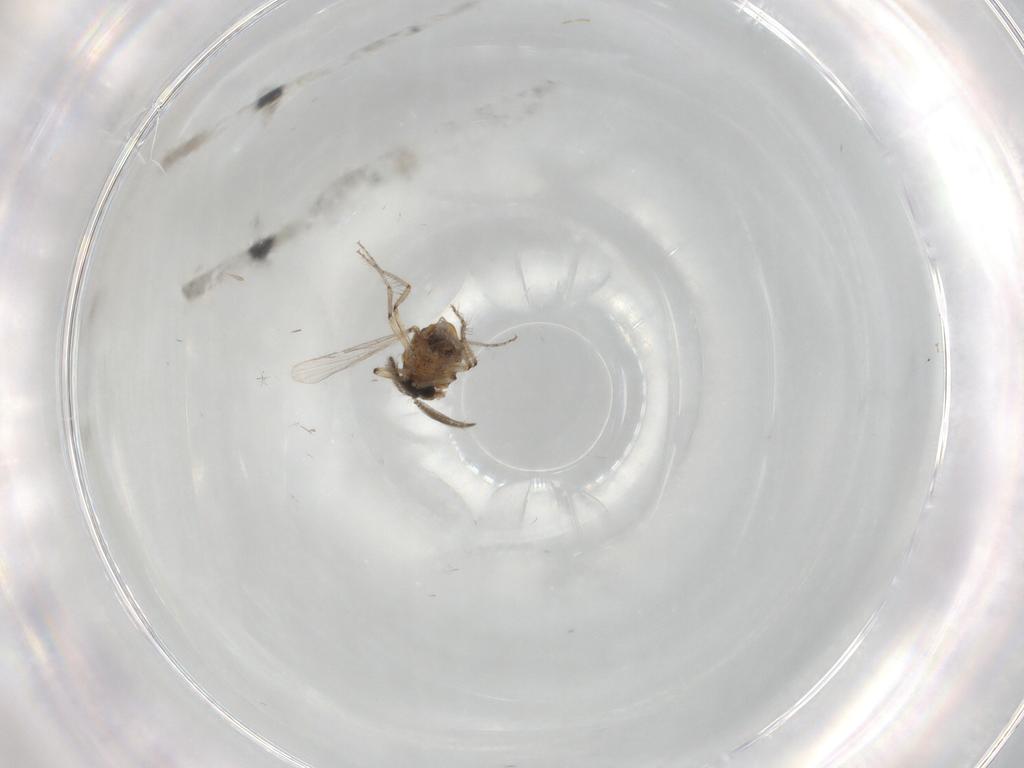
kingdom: Animalia
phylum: Arthropoda
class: Insecta
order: Diptera
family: Ceratopogonidae
